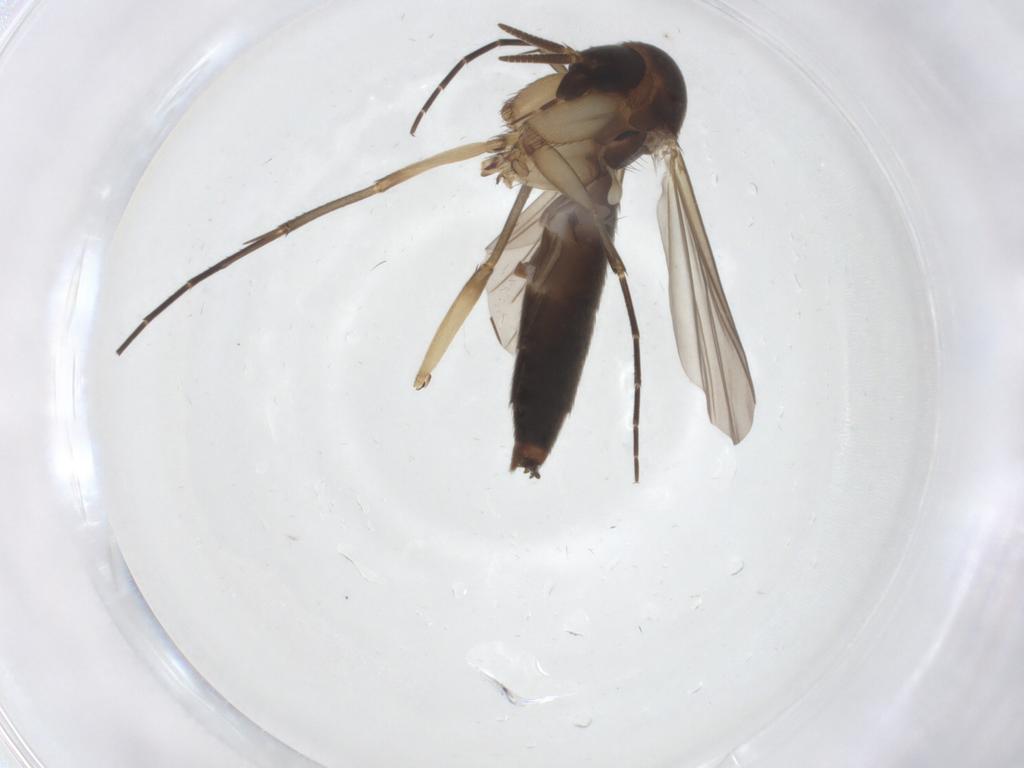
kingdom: Animalia
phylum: Arthropoda
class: Insecta
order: Diptera
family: Mycetophilidae
